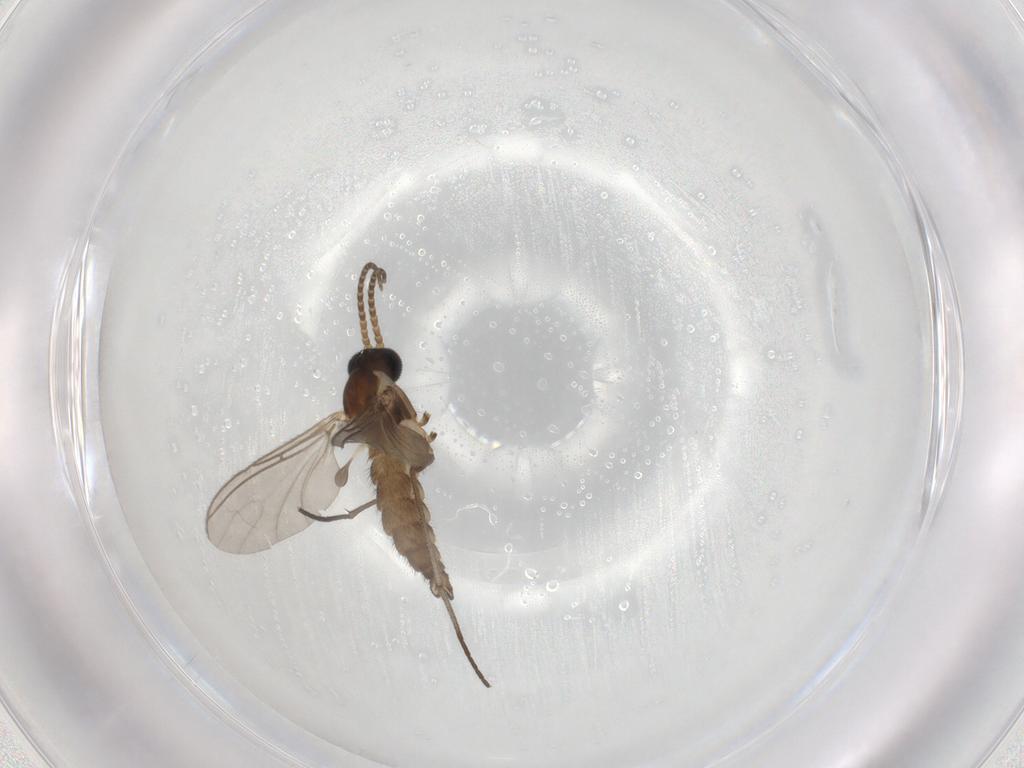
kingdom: Animalia
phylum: Arthropoda
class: Insecta
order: Diptera
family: Sciaridae
